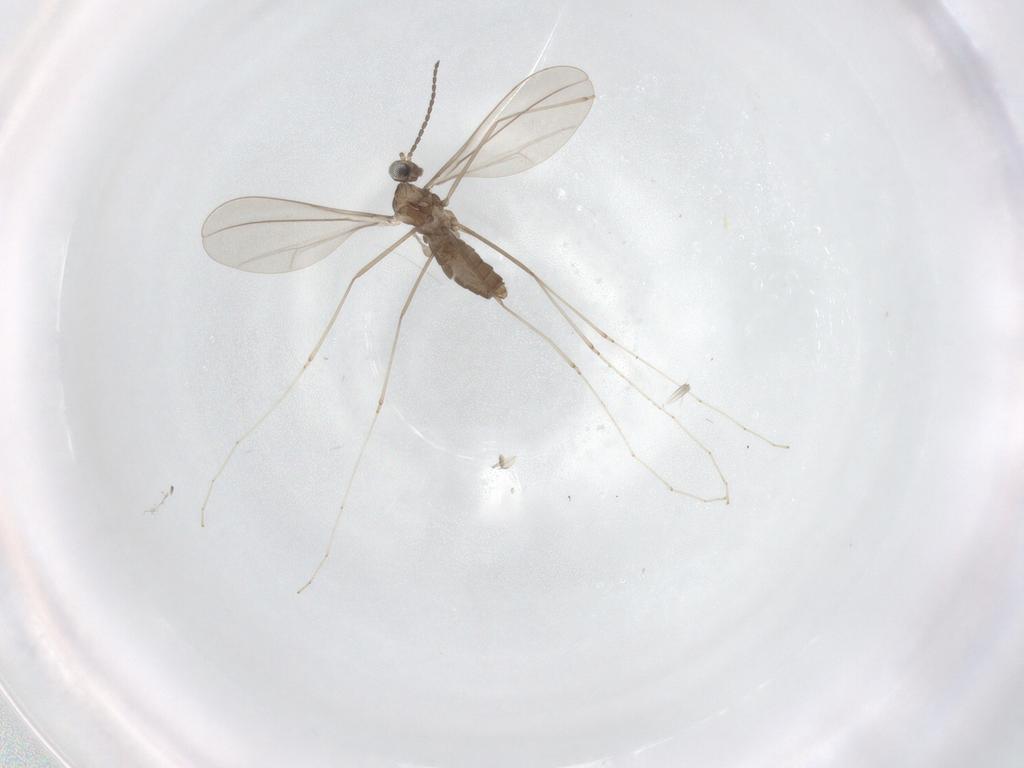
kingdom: Animalia
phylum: Arthropoda
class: Insecta
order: Diptera
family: Cecidomyiidae
